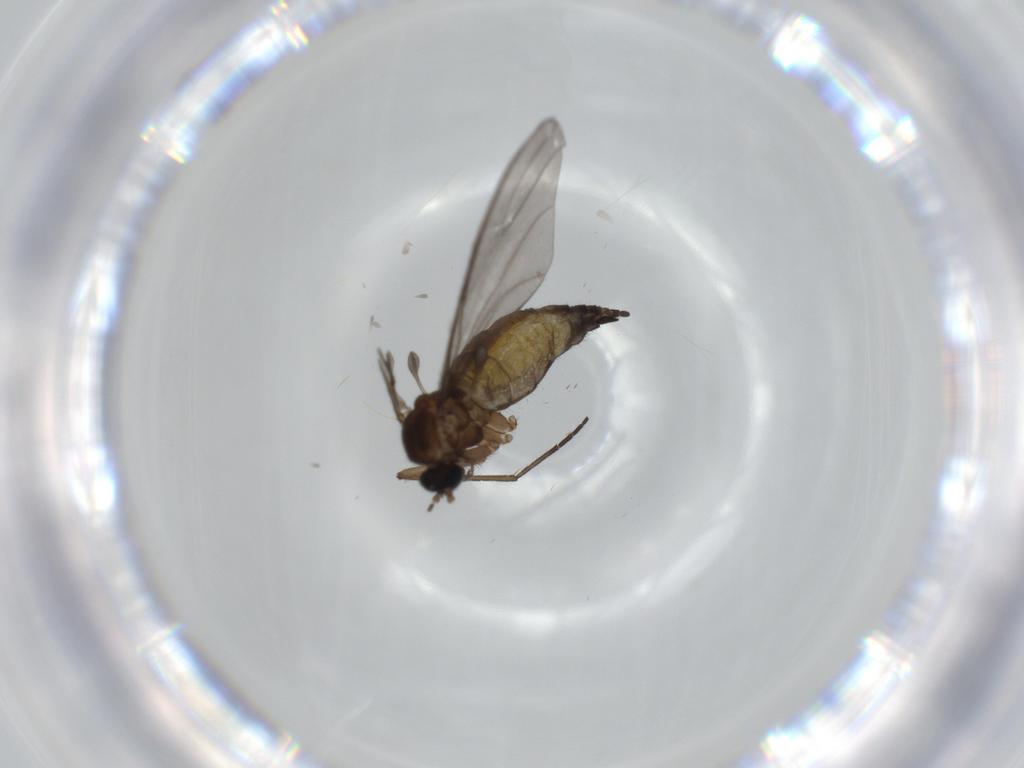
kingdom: Animalia
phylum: Arthropoda
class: Insecta
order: Diptera
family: Sciaridae
